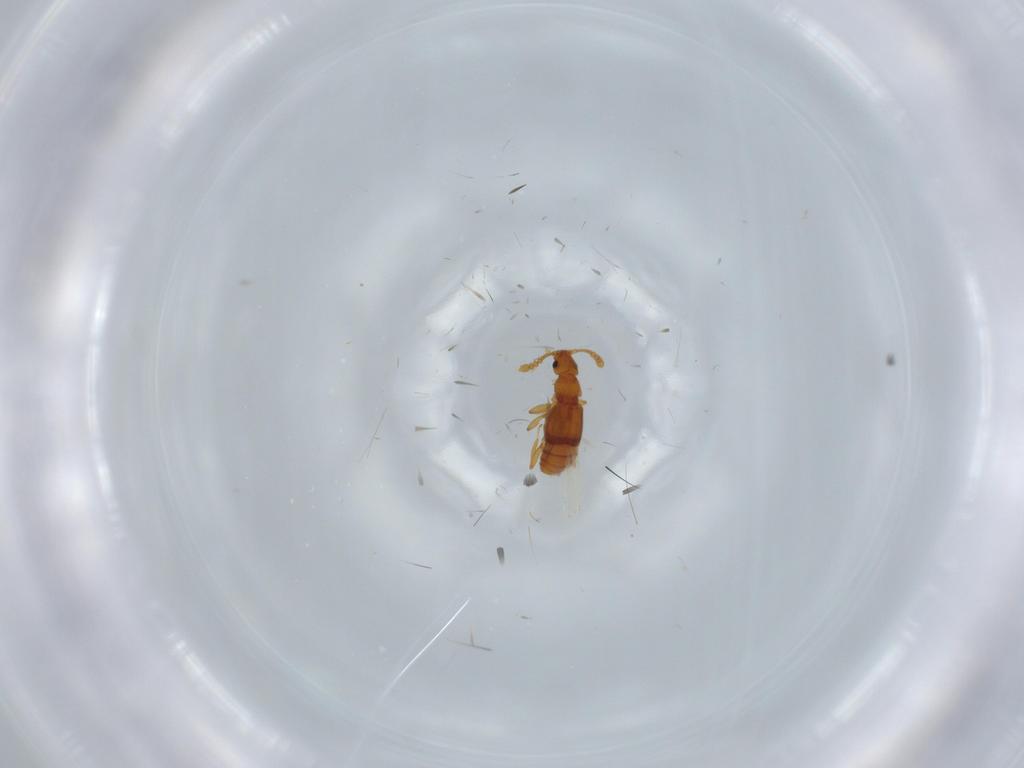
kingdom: Animalia
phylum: Arthropoda
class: Insecta
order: Coleoptera
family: Staphylinidae
